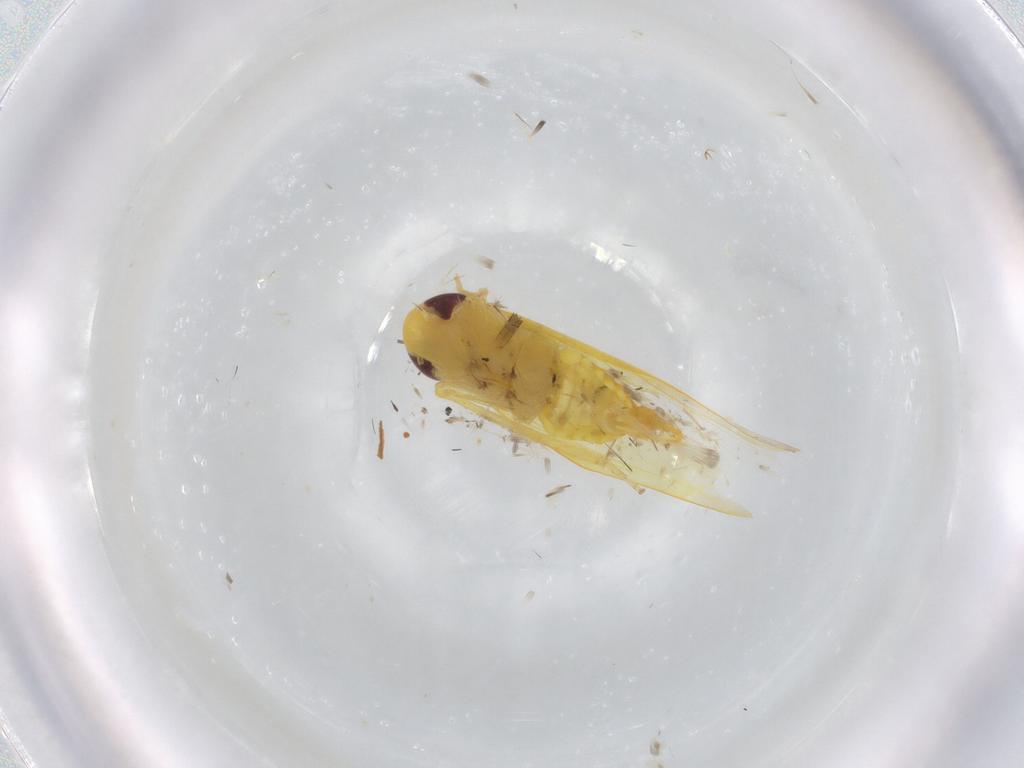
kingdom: Animalia
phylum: Arthropoda
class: Insecta
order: Hemiptera
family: Cicadellidae
